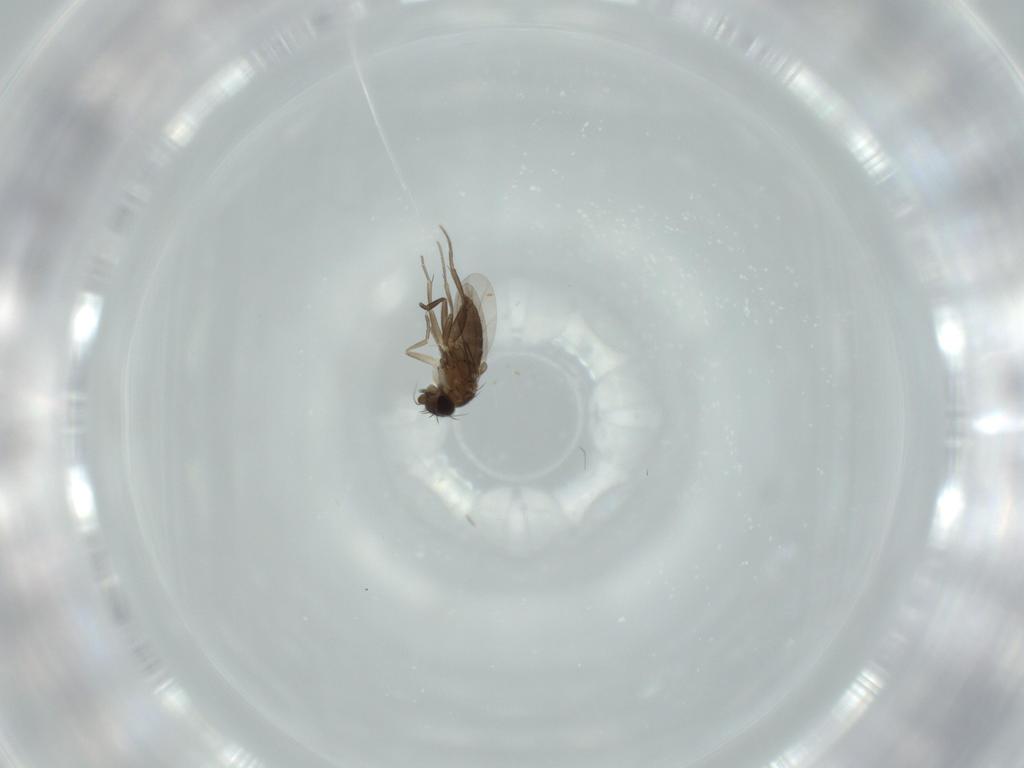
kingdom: Animalia
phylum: Arthropoda
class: Insecta
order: Diptera
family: Phoridae
